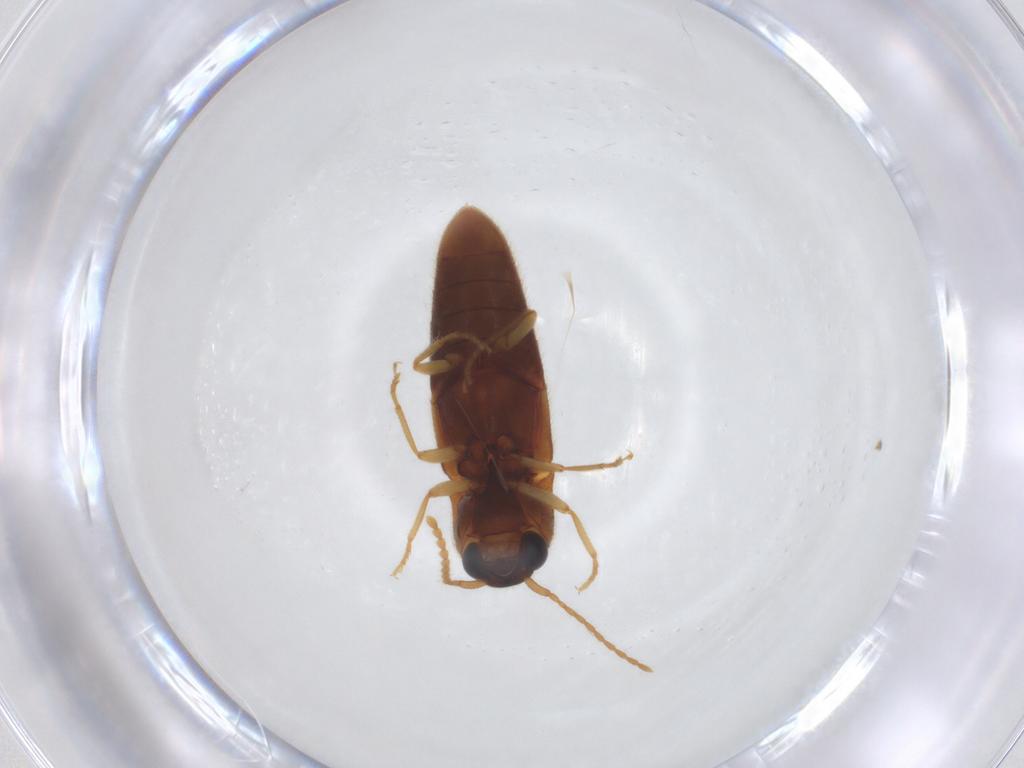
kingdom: Animalia
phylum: Arthropoda
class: Insecta
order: Coleoptera
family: Elateridae
